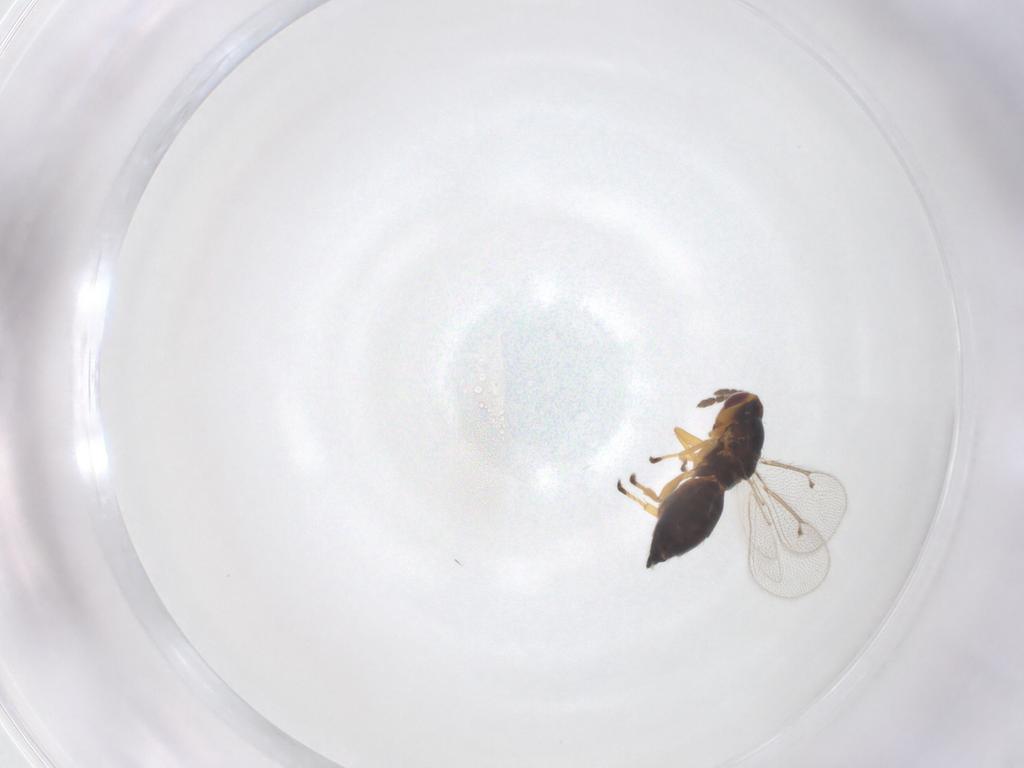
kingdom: Animalia
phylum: Arthropoda
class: Insecta
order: Hymenoptera
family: Eulophidae
